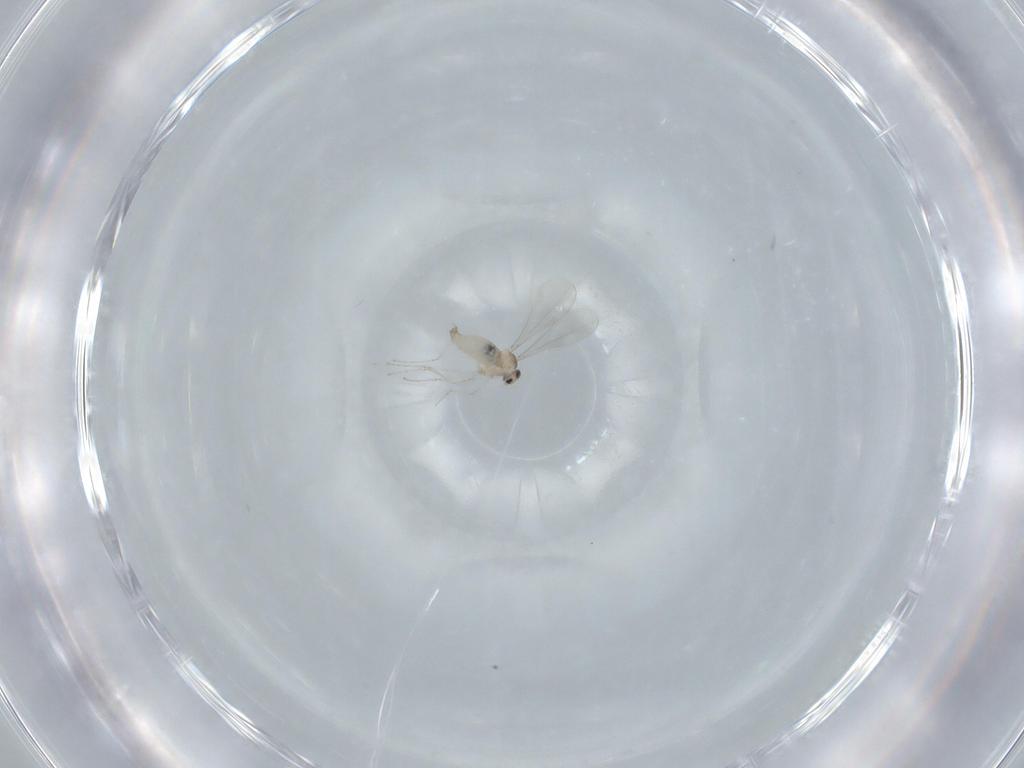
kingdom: Animalia
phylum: Arthropoda
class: Insecta
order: Diptera
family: Cecidomyiidae
